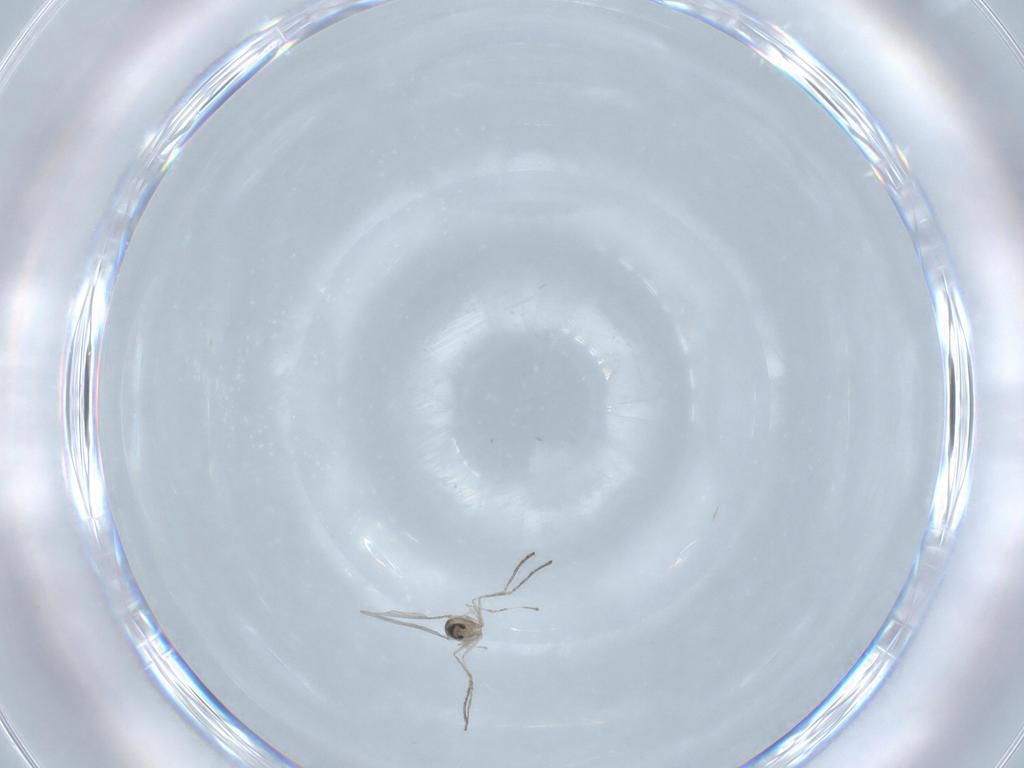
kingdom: Animalia
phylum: Arthropoda
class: Insecta
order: Diptera
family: Cecidomyiidae
